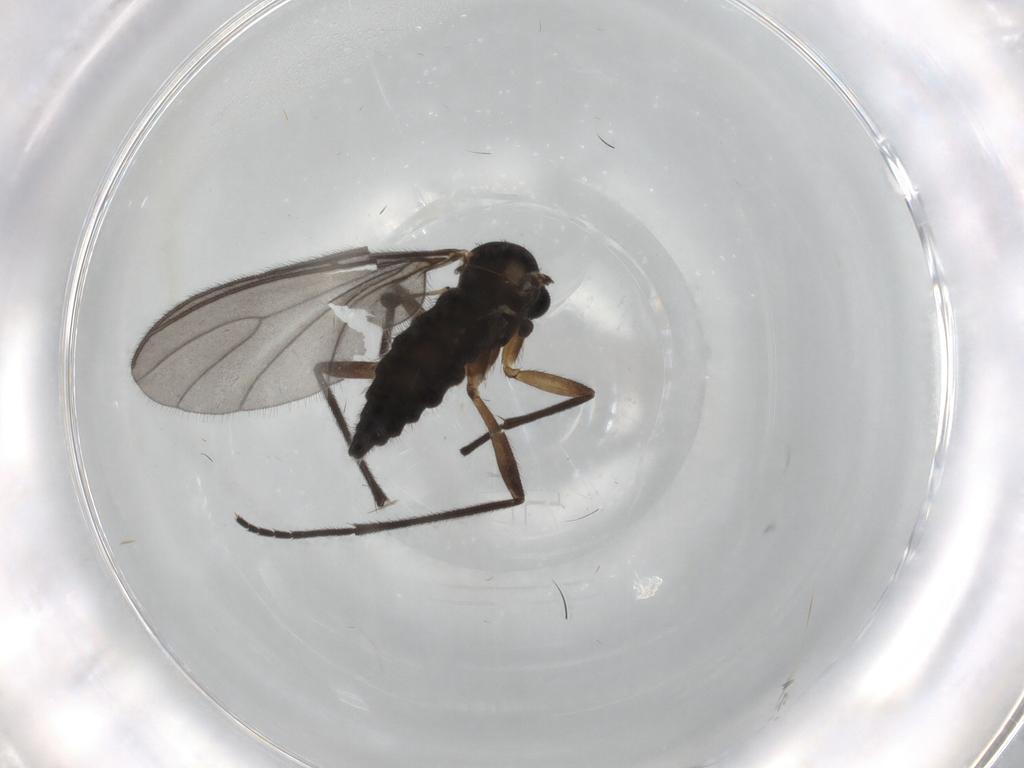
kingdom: Animalia
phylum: Arthropoda
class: Insecta
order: Diptera
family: Sciaridae
